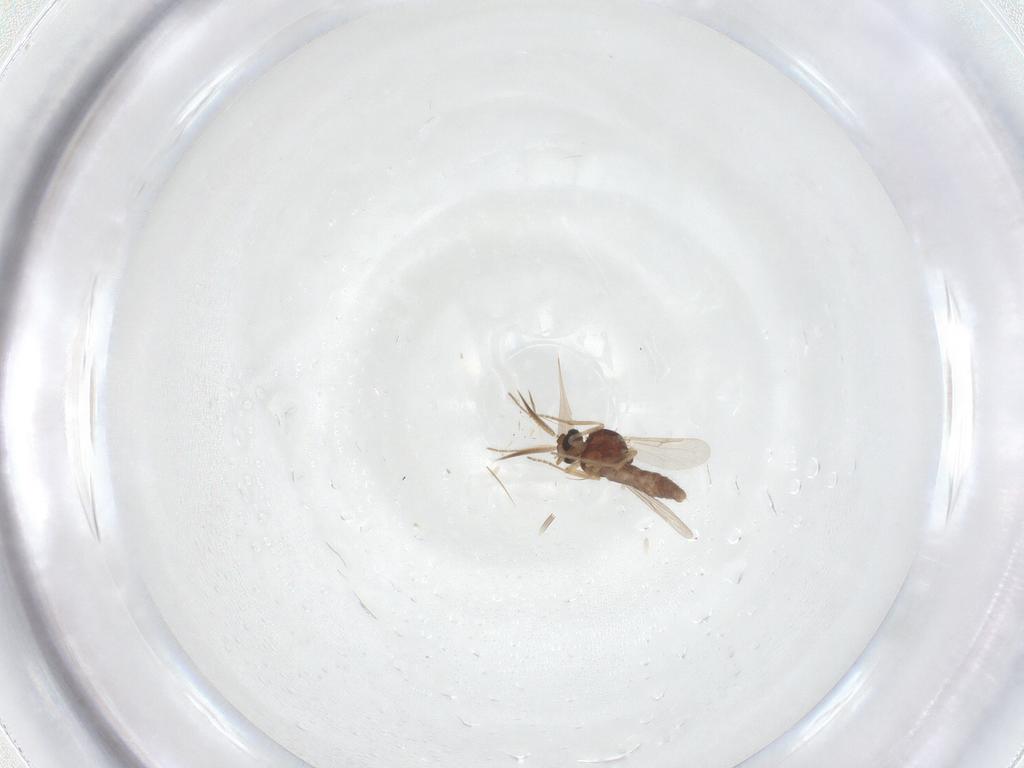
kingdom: Animalia
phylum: Arthropoda
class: Insecta
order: Diptera
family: Ceratopogonidae
